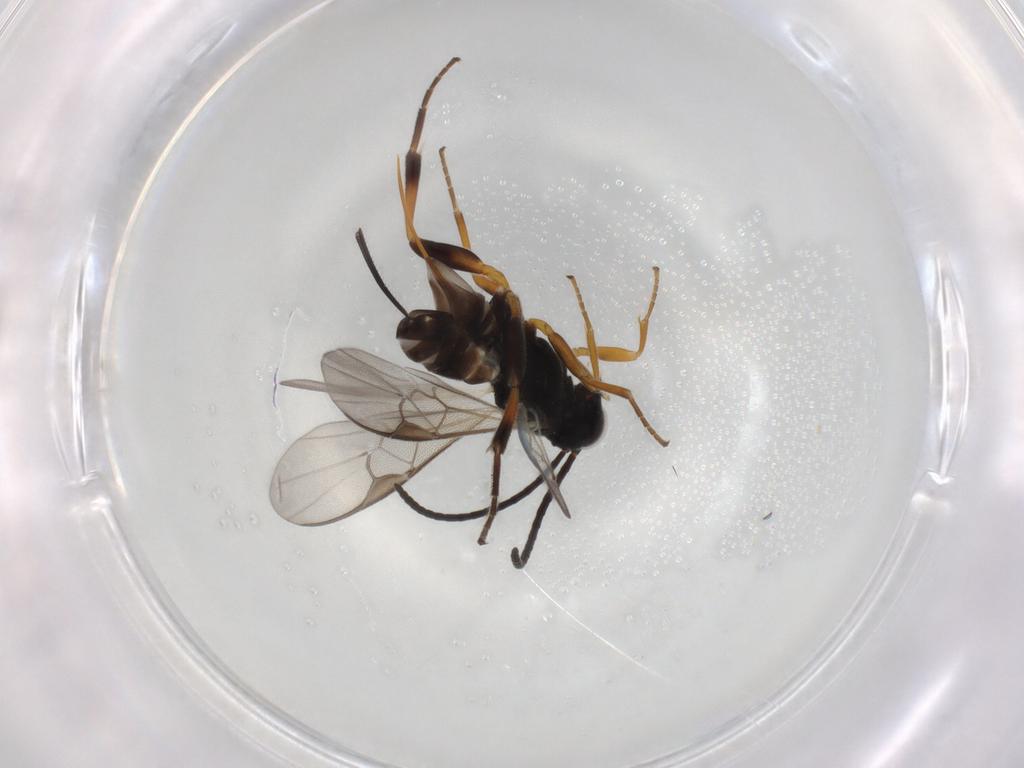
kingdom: Animalia
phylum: Arthropoda
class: Insecta
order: Hymenoptera
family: Braconidae
